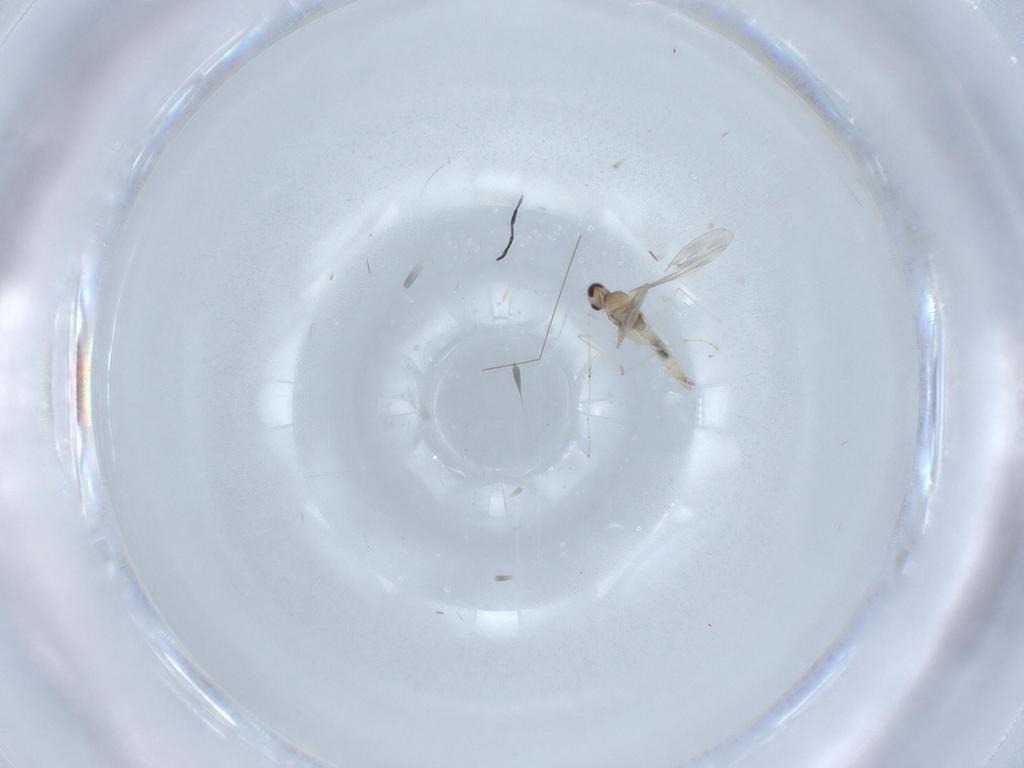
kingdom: Animalia
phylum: Arthropoda
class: Insecta
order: Diptera
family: Cecidomyiidae
